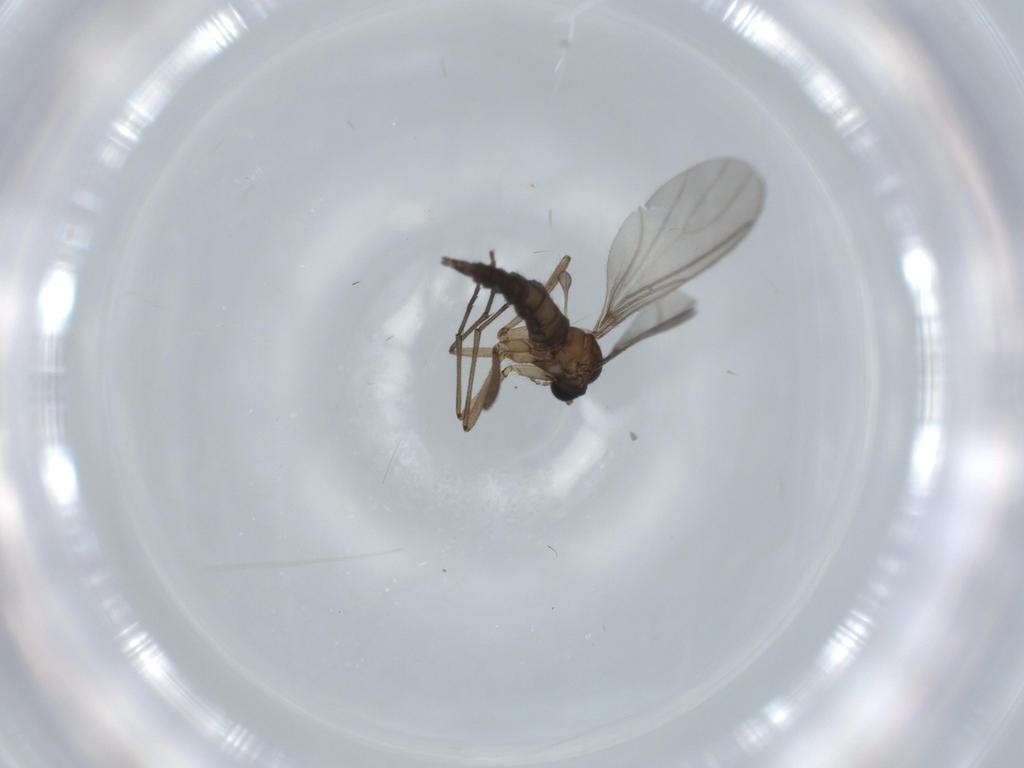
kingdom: Animalia
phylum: Arthropoda
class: Insecta
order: Diptera
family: Sciaridae
